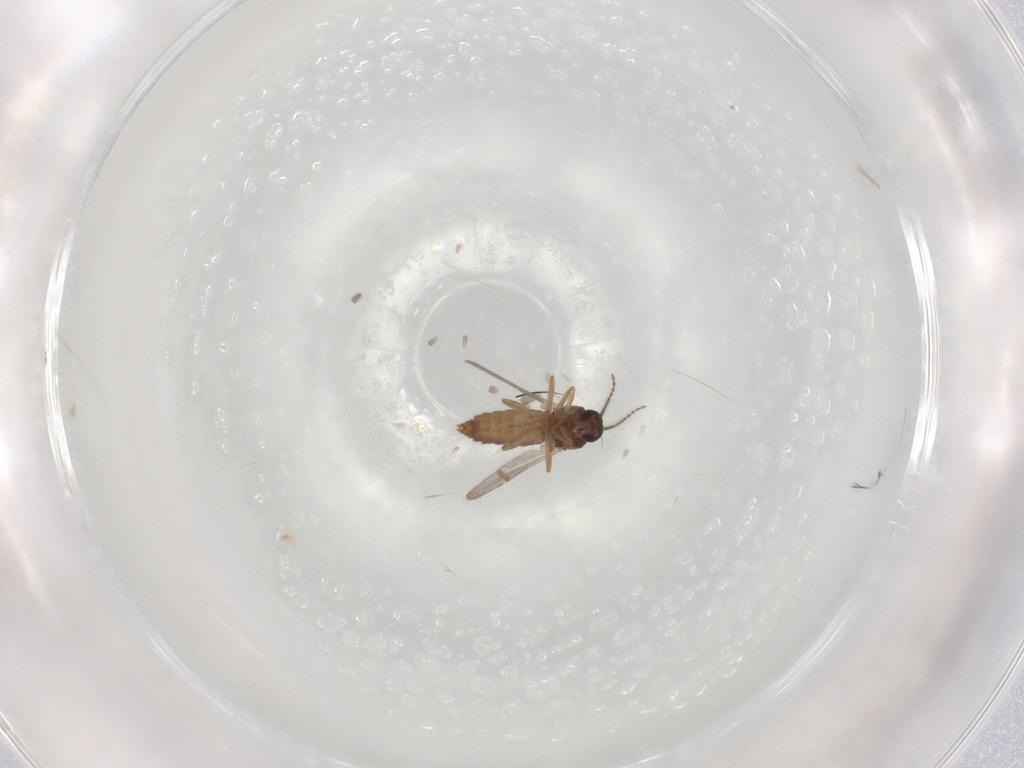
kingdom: Animalia
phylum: Arthropoda
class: Insecta
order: Diptera
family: Ceratopogonidae
